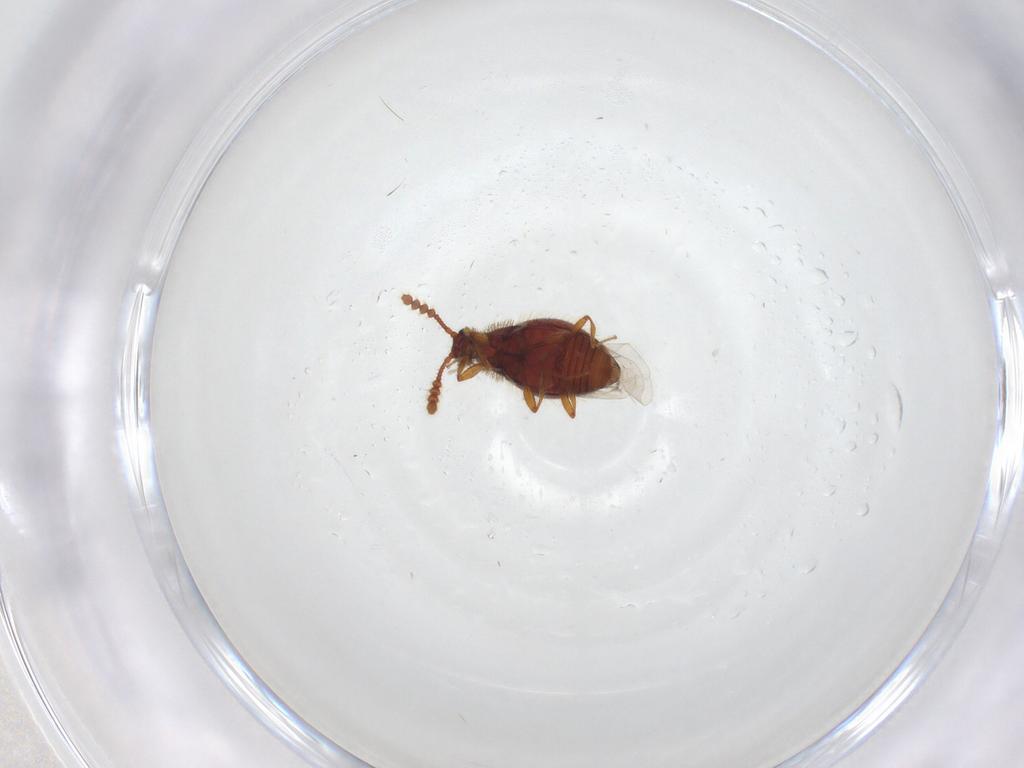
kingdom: Animalia
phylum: Arthropoda
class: Insecta
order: Coleoptera
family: Staphylinidae
